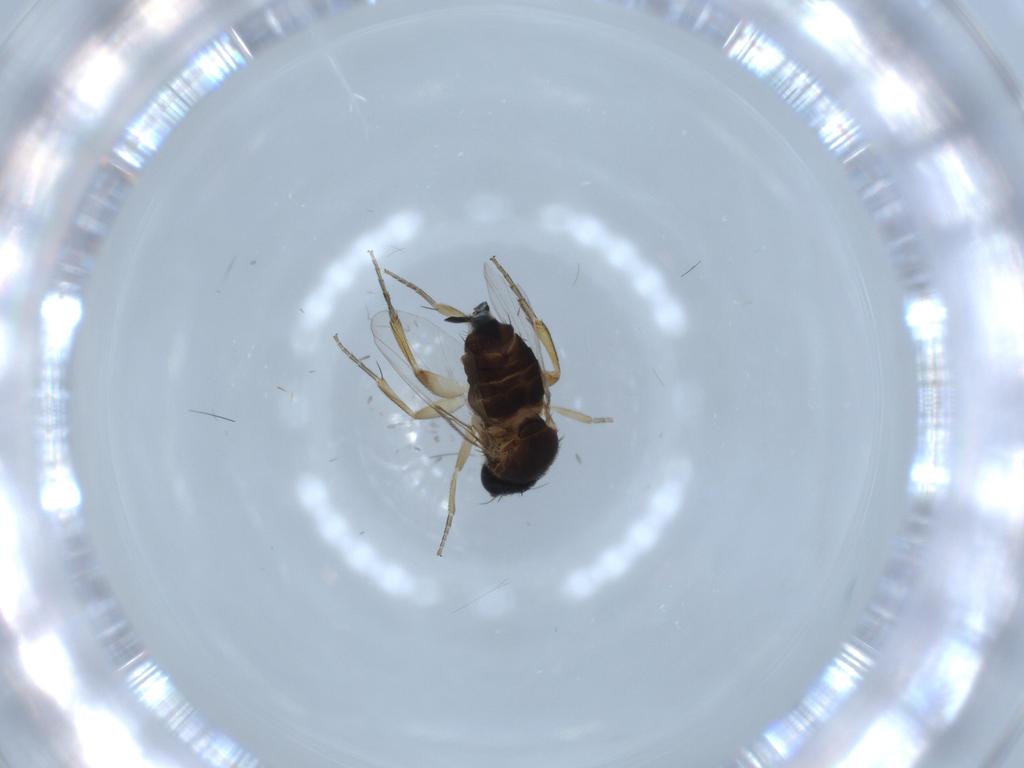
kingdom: Animalia
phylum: Arthropoda
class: Insecta
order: Diptera
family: Phoridae
